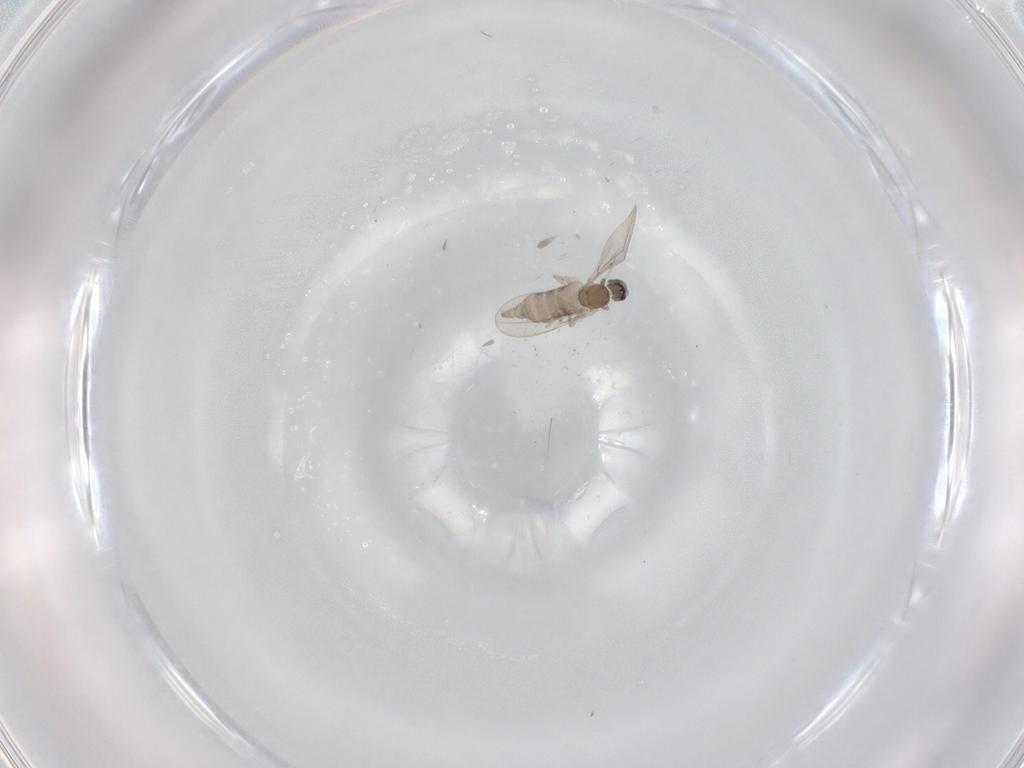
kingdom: Animalia
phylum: Arthropoda
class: Insecta
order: Diptera
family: Cecidomyiidae
